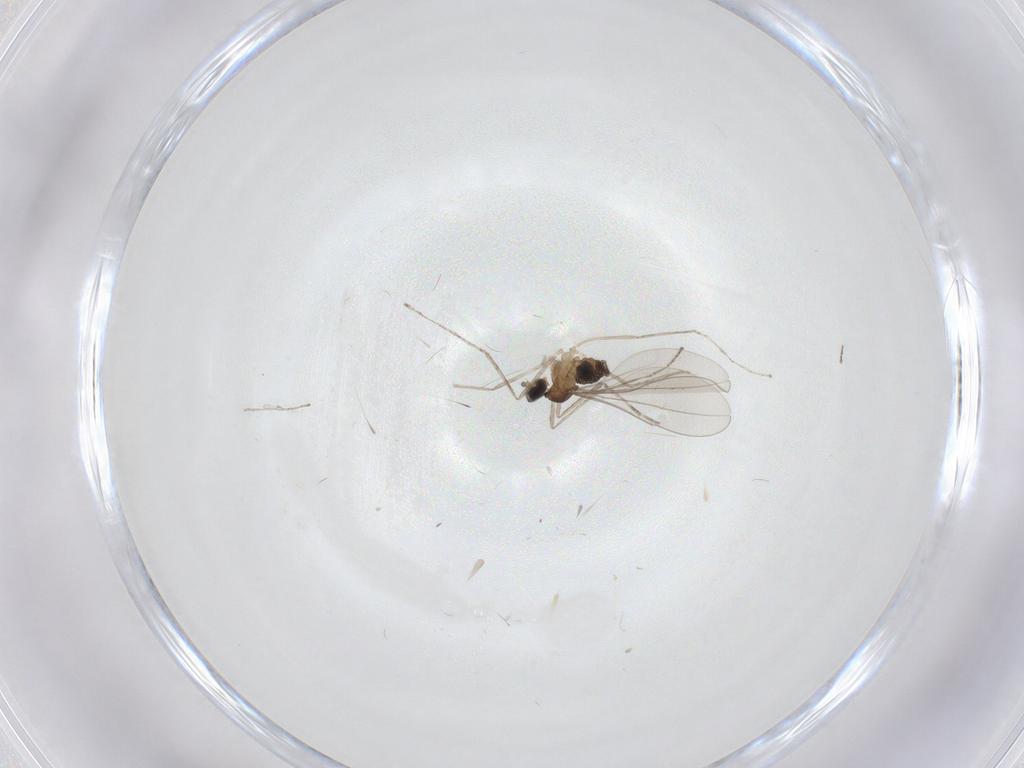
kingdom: Animalia
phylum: Arthropoda
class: Insecta
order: Diptera
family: Cecidomyiidae
